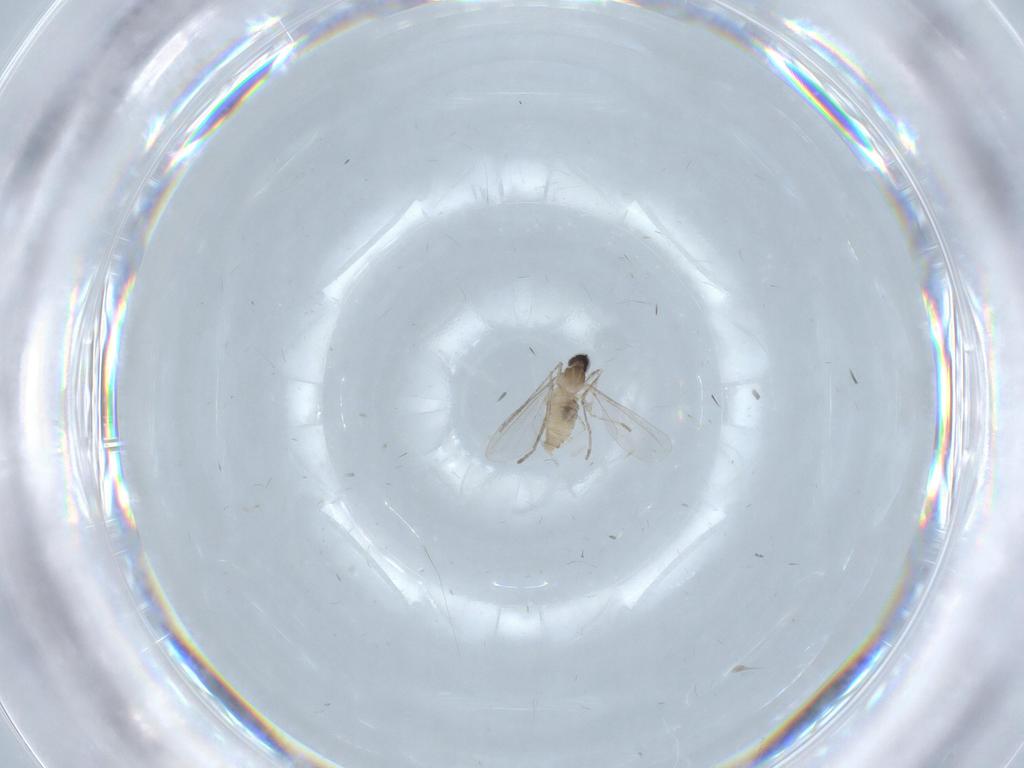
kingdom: Animalia
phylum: Arthropoda
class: Insecta
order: Diptera
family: Cecidomyiidae
